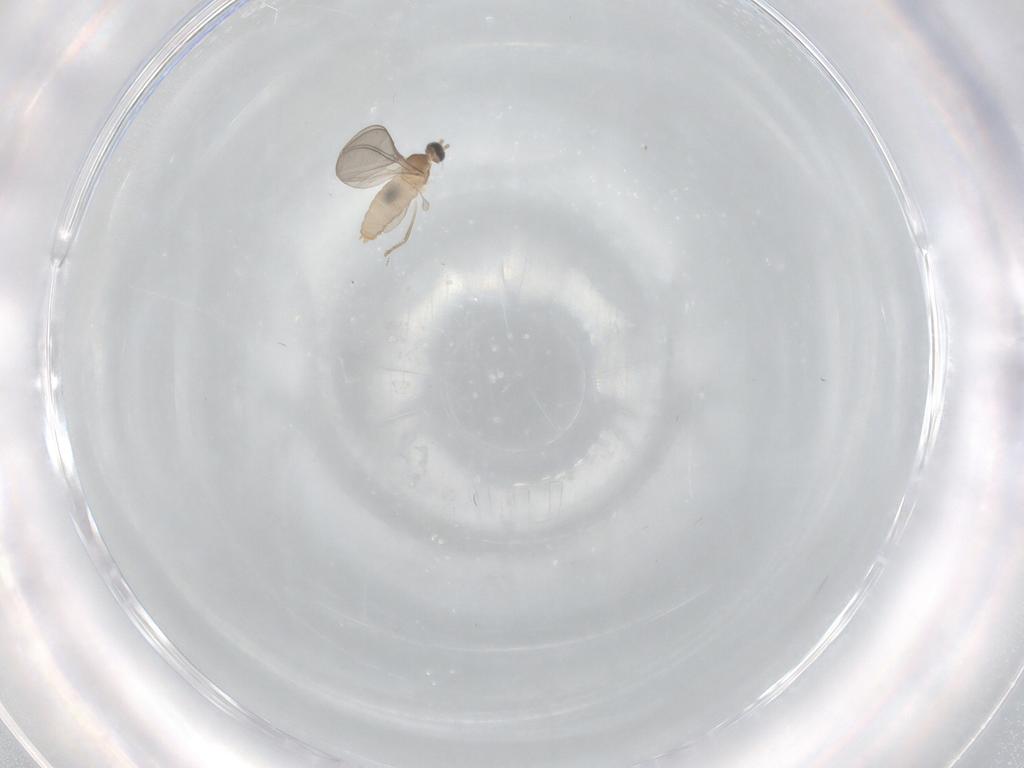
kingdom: Animalia
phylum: Arthropoda
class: Insecta
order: Diptera
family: Cecidomyiidae
